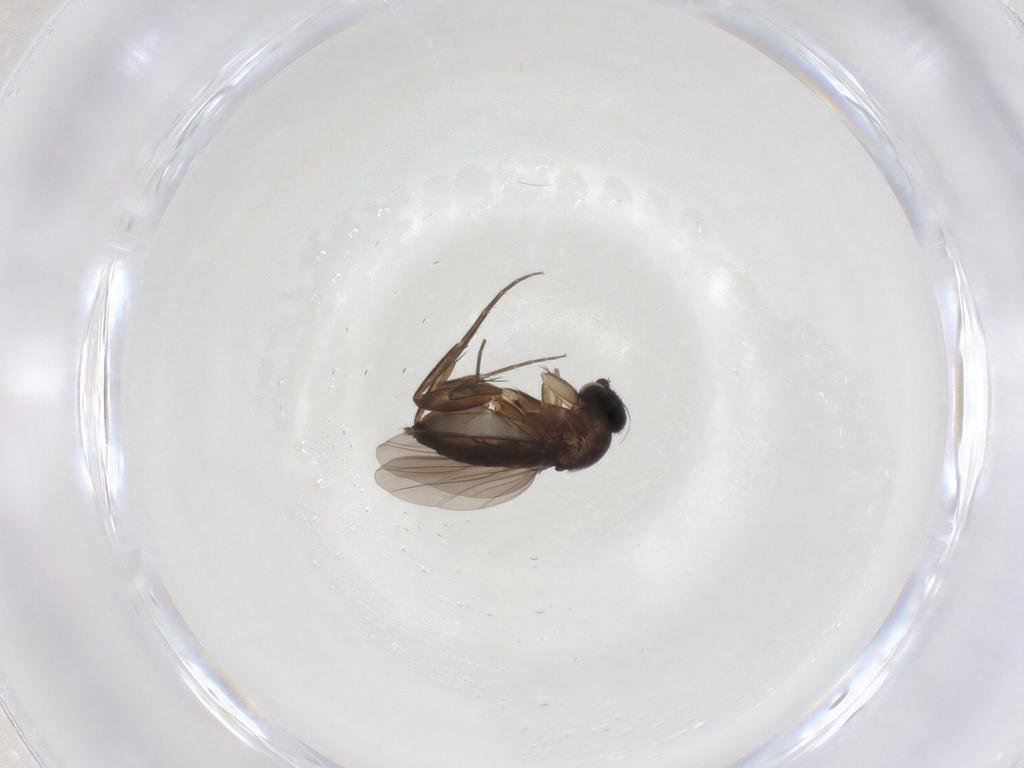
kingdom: Animalia
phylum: Arthropoda
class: Insecta
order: Diptera
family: Phoridae
